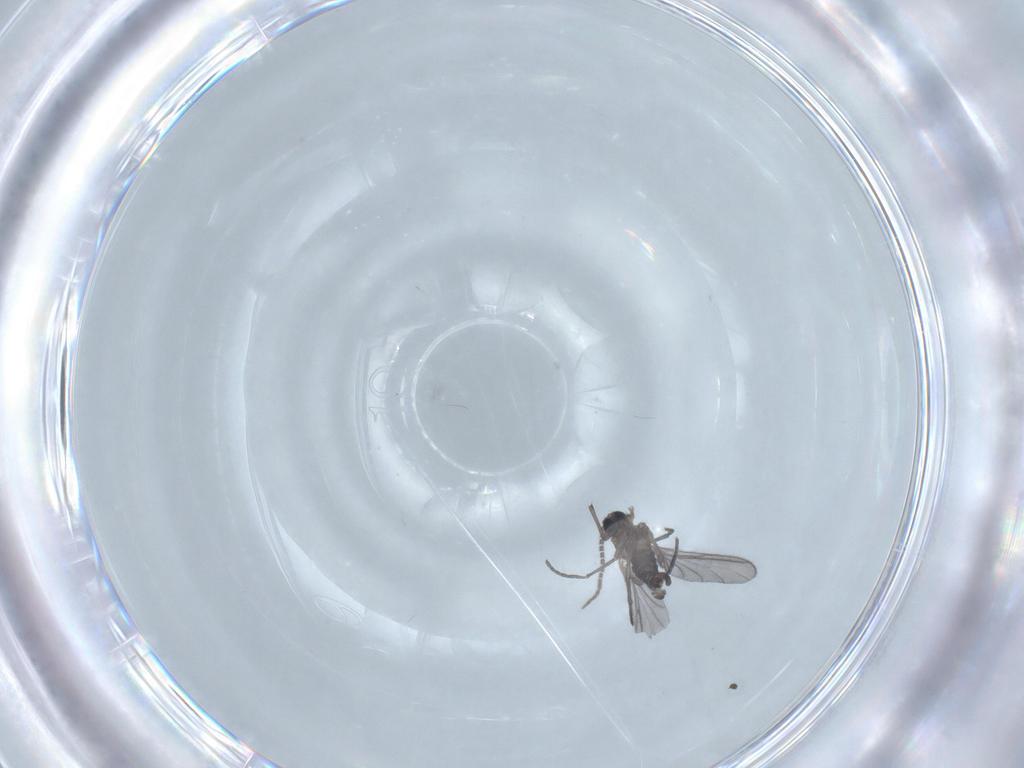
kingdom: Animalia
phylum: Arthropoda
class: Insecta
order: Diptera
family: Sciaridae
